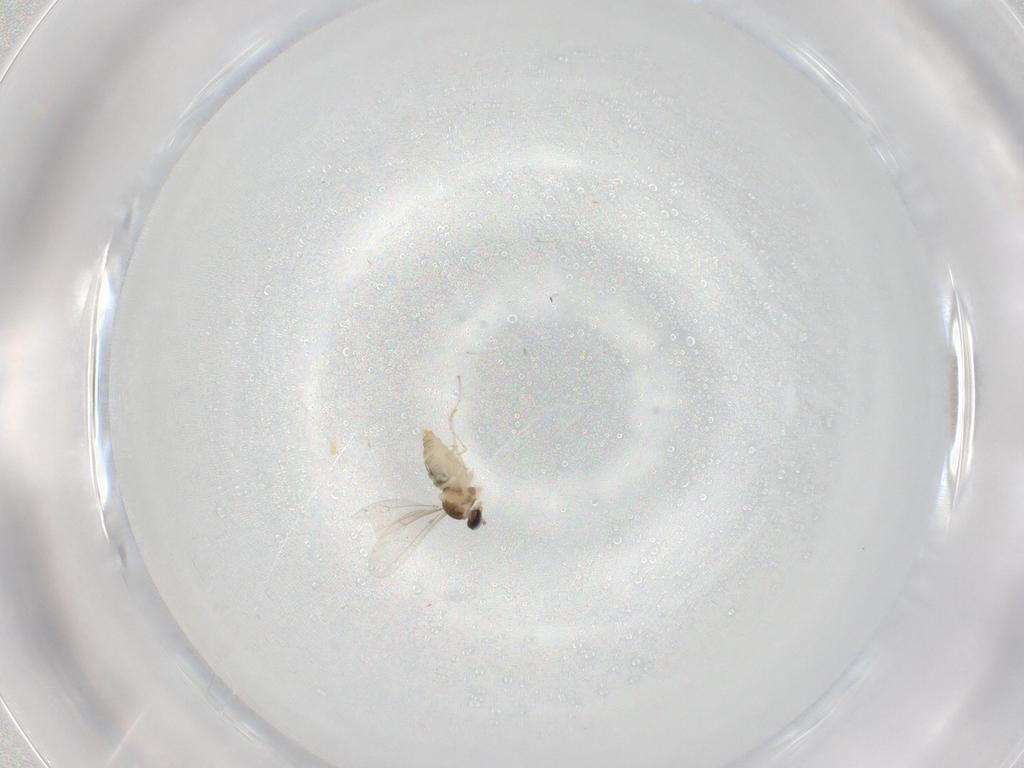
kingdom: Animalia
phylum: Arthropoda
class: Insecta
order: Diptera
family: Cecidomyiidae
